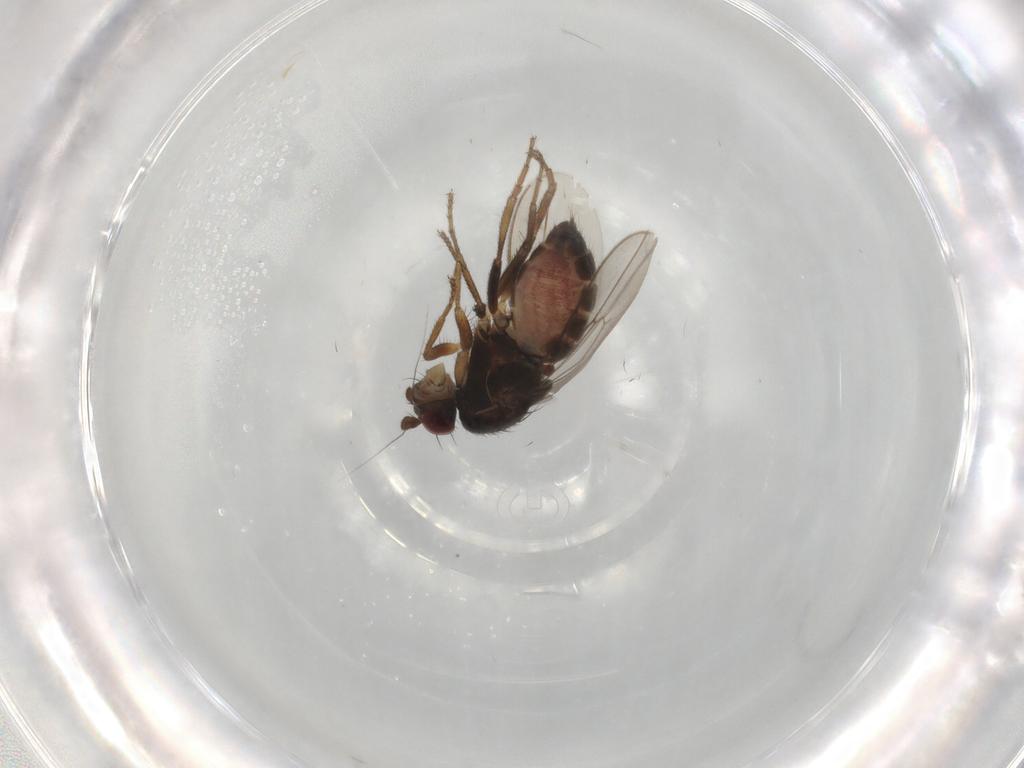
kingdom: Animalia
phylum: Arthropoda
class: Insecta
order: Diptera
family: Sphaeroceridae
